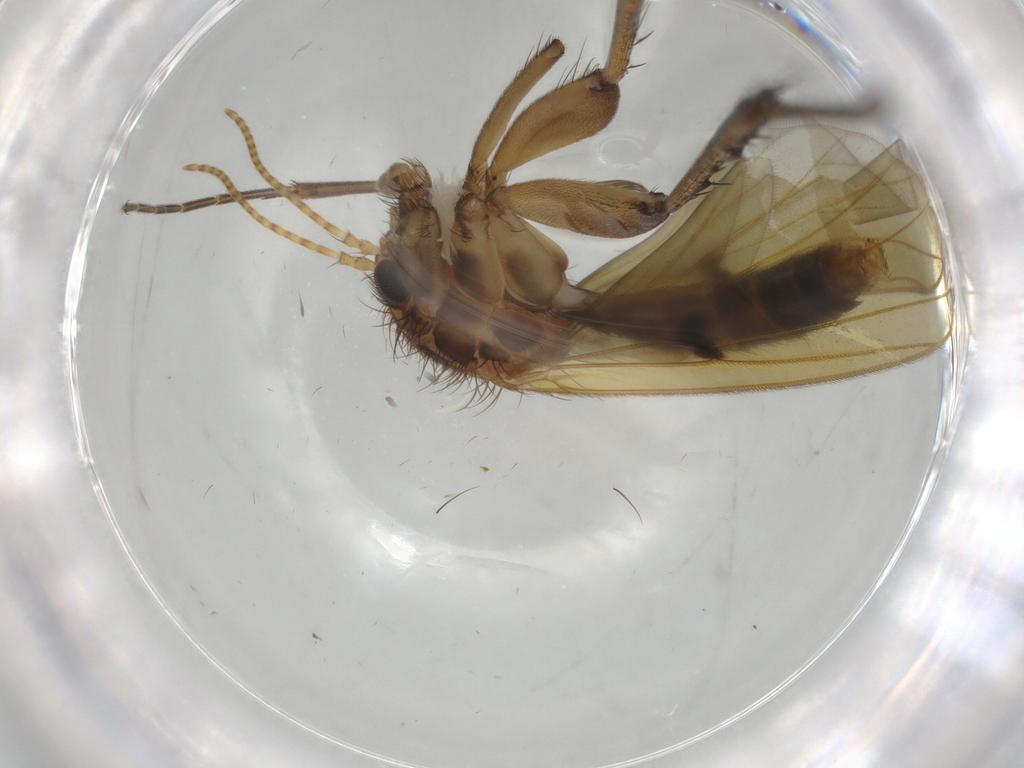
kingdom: Animalia
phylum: Arthropoda
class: Insecta
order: Diptera
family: Mycetophilidae
